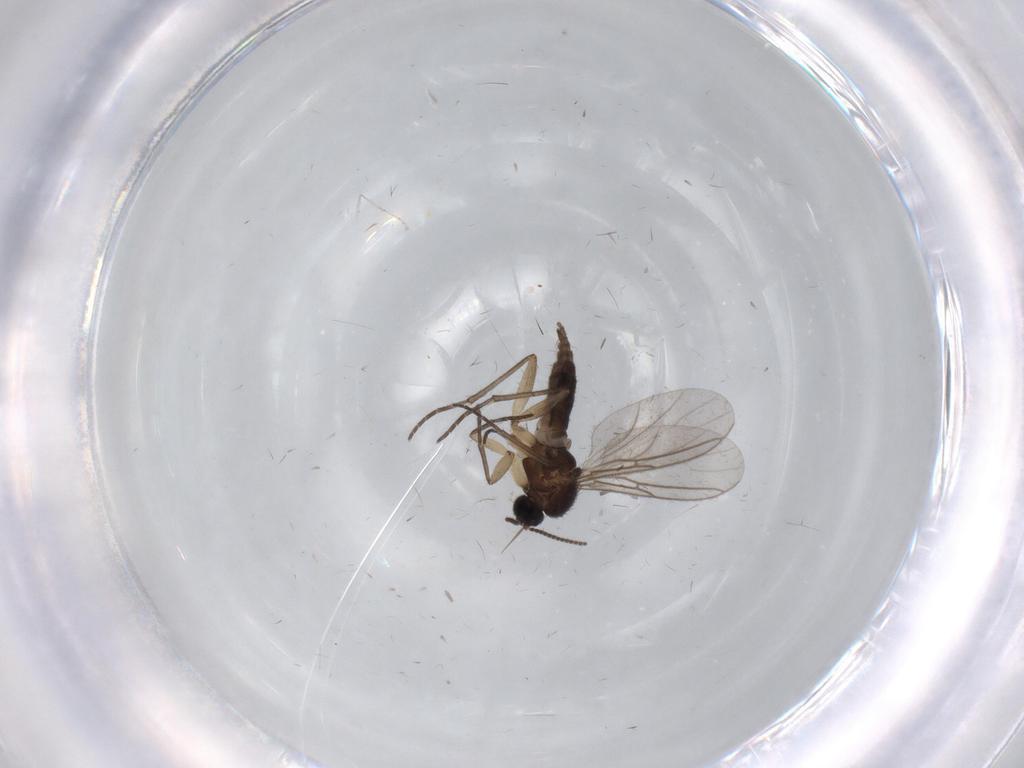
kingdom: Animalia
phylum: Arthropoda
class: Insecta
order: Diptera
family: Sciaridae
